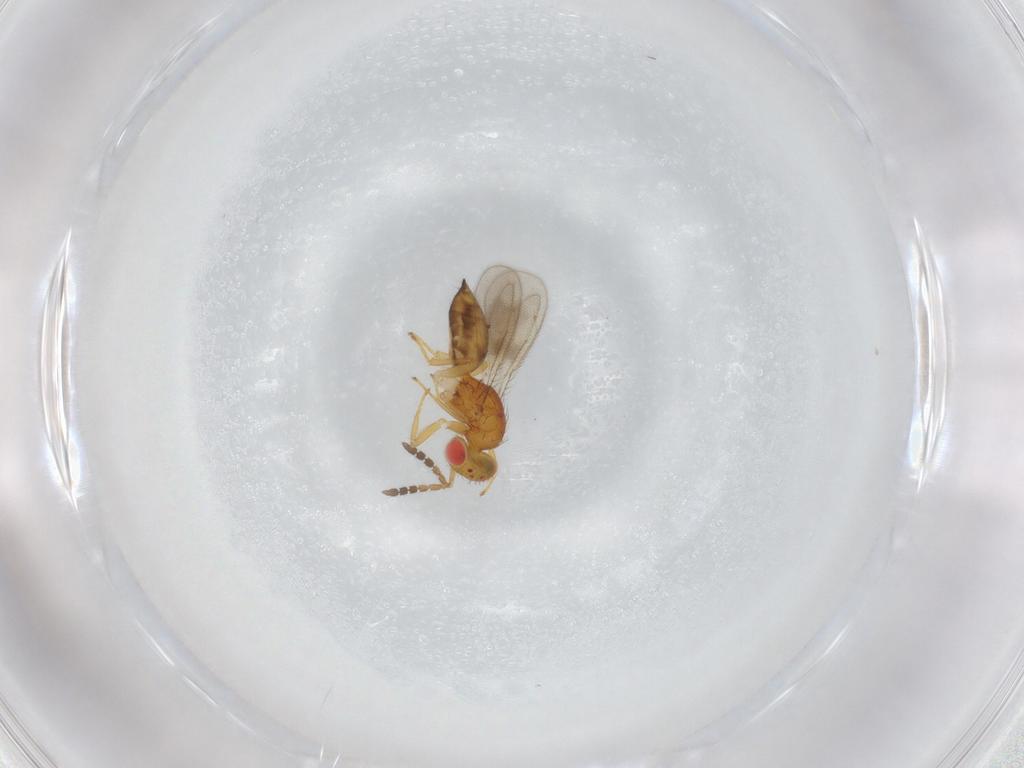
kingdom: Animalia
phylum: Arthropoda
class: Insecta
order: Hymenoptera
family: Eulophidae
